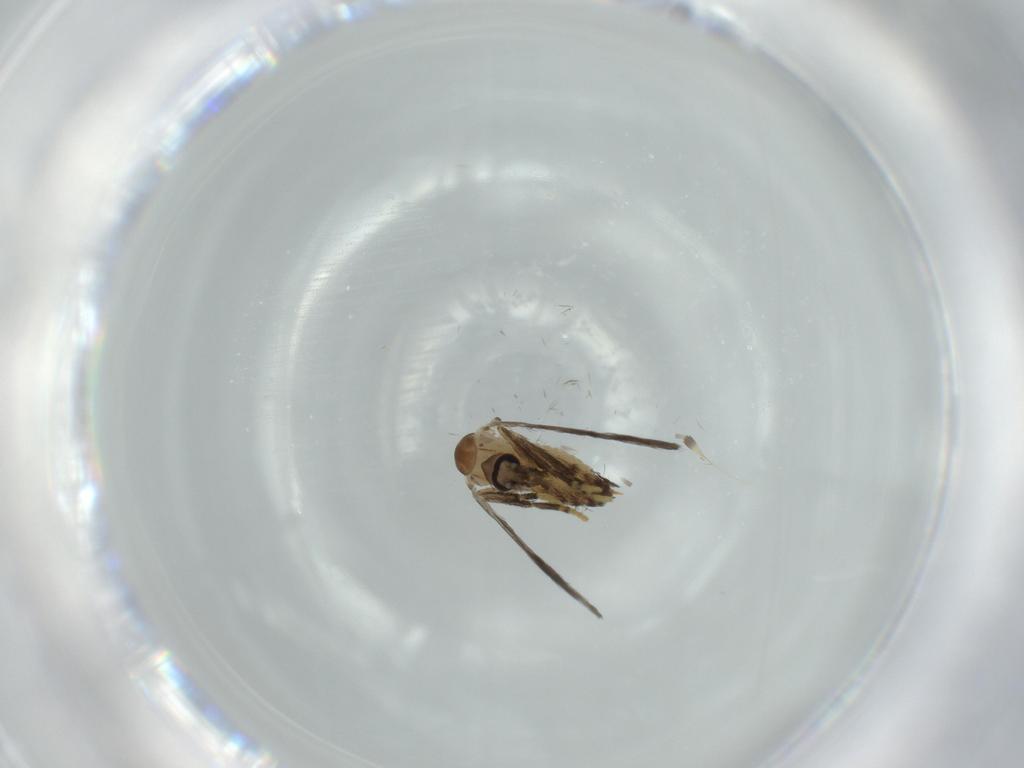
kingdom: Animalia
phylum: Arthropoda
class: Insecta
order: Diptera
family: Psychodidae
